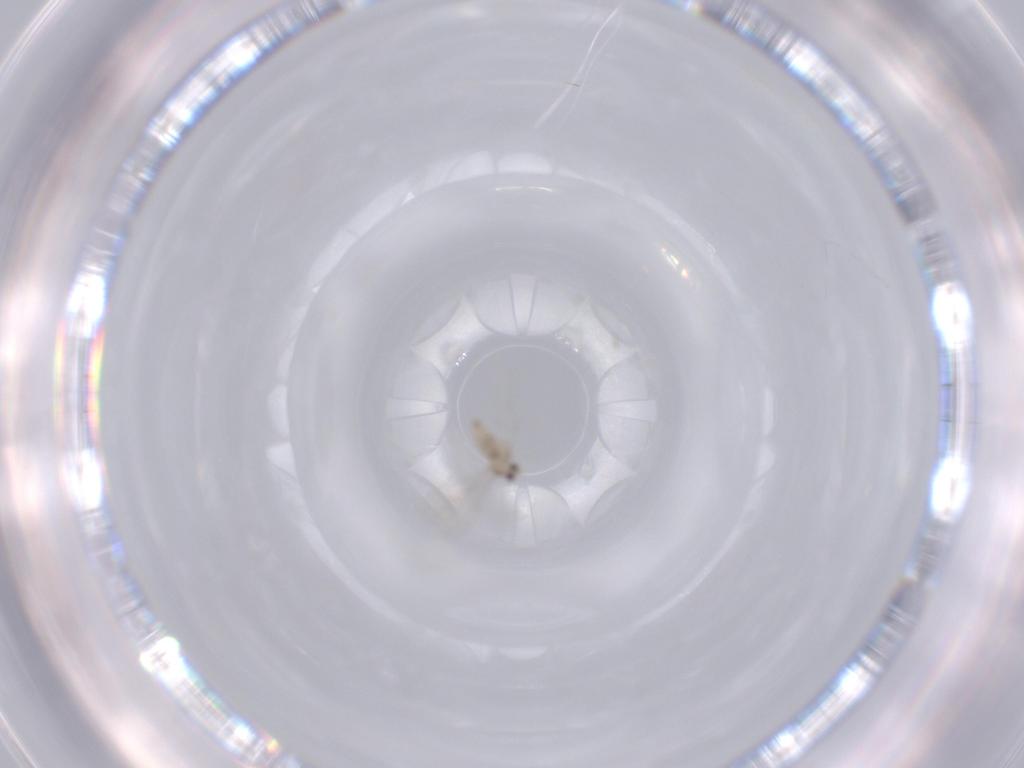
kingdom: Animalia
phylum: Arthropoda
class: Insecta
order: Diptera
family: Cecidomyiidae
